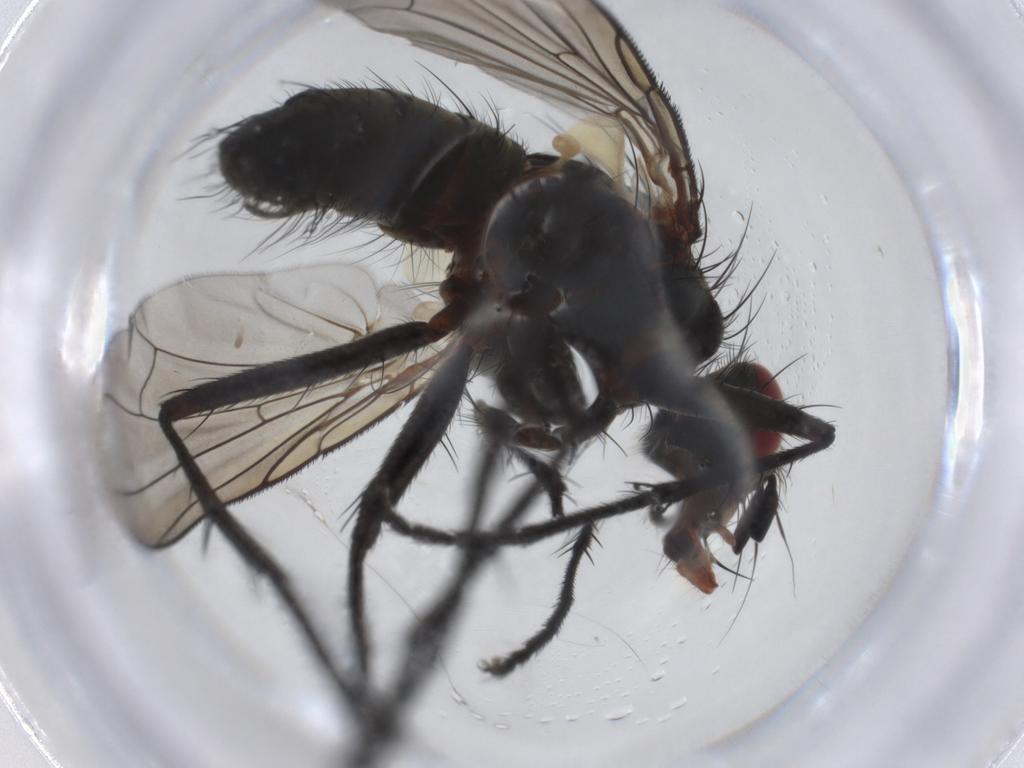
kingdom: Animalia
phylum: Arthropoda
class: Insecta
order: Diptera
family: Tachinidae
